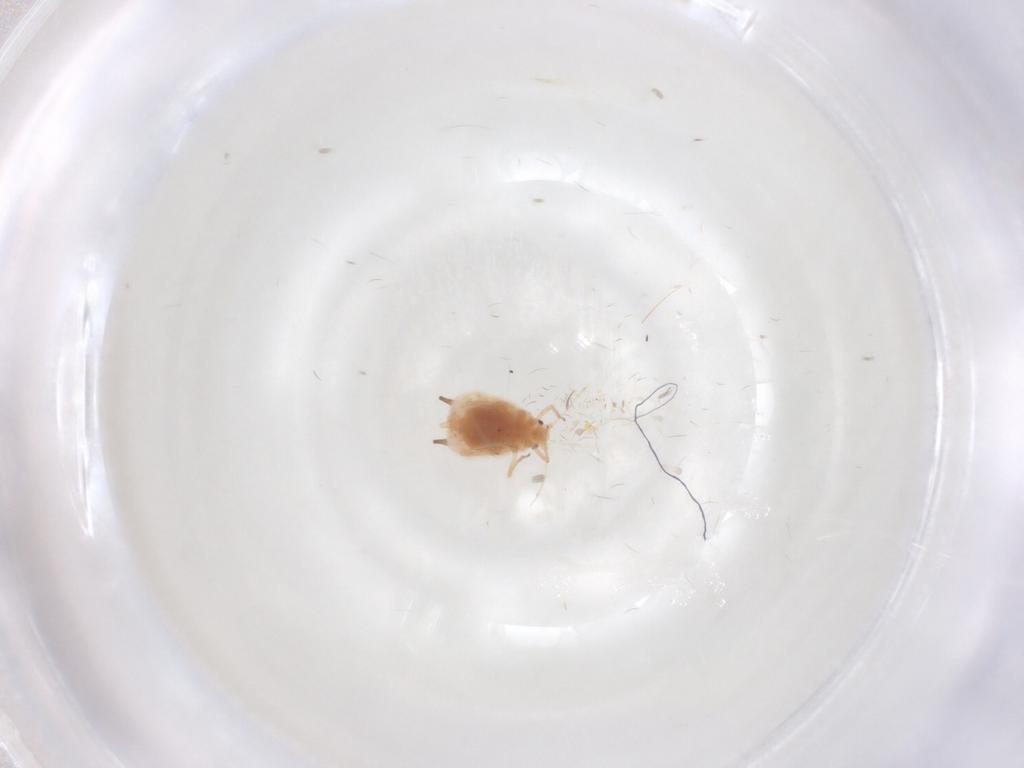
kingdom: Animalia
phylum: Arthropoda
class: Insecta
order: Hemiptera
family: Aphididae
